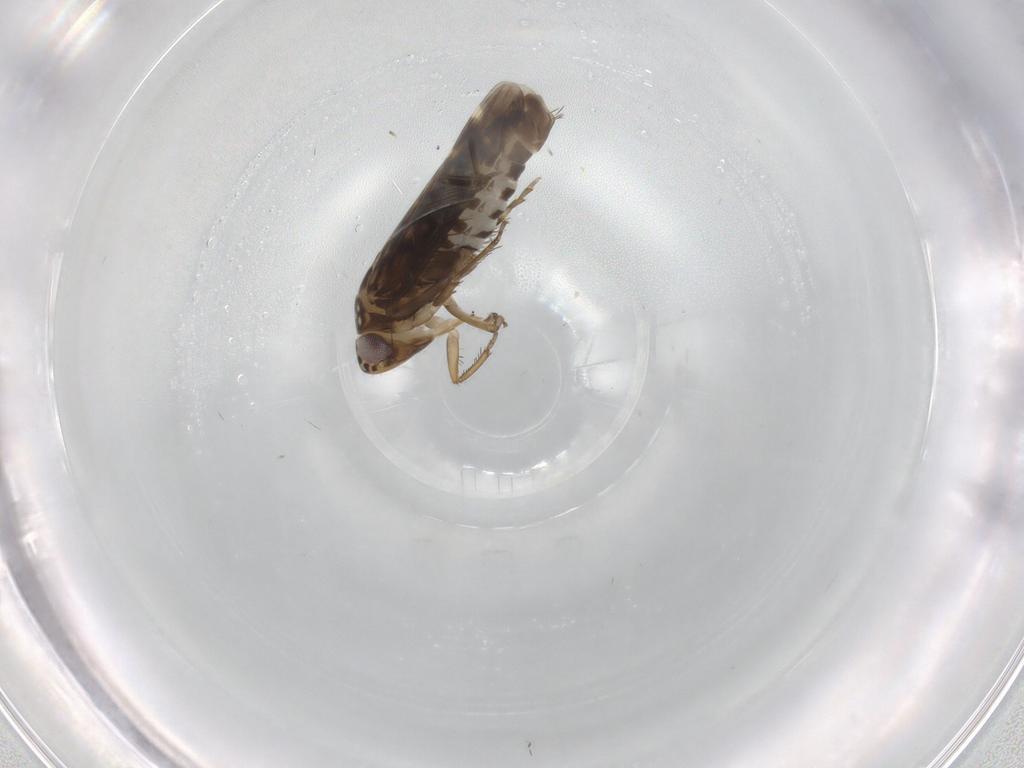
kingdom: Animalia
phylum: Arthropoda
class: Insecta
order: Hemiptera
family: Cicadellidae
